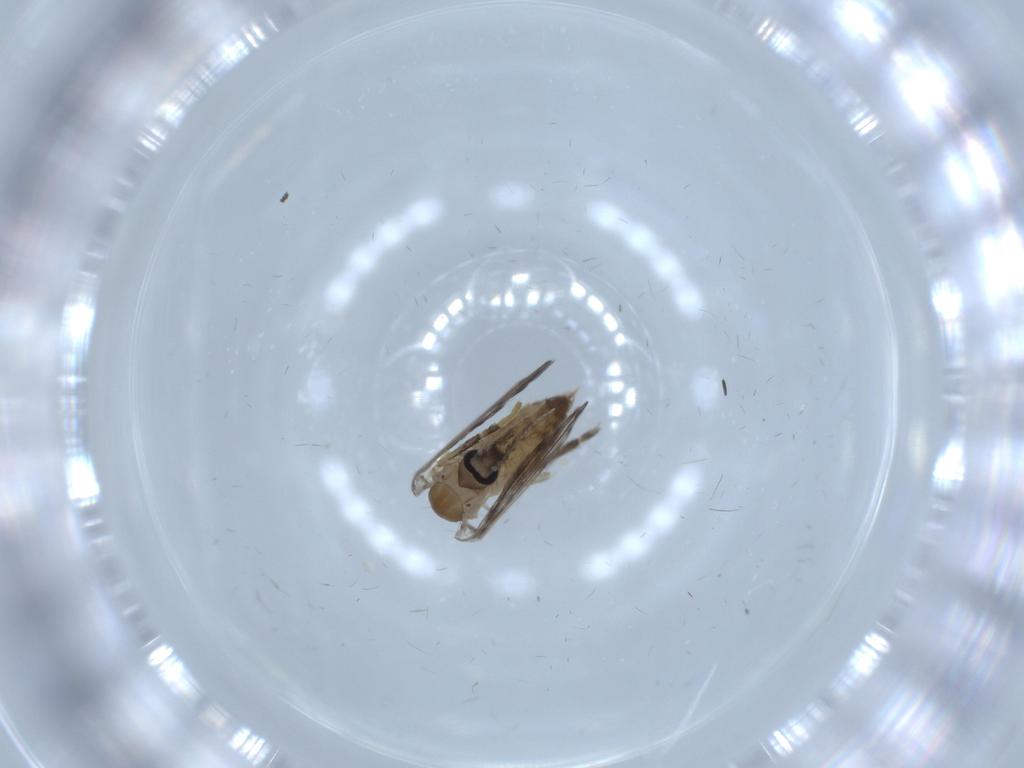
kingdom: Animalia
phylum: Arthropoda
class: Insecta
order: Diptera
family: Psychodidae
